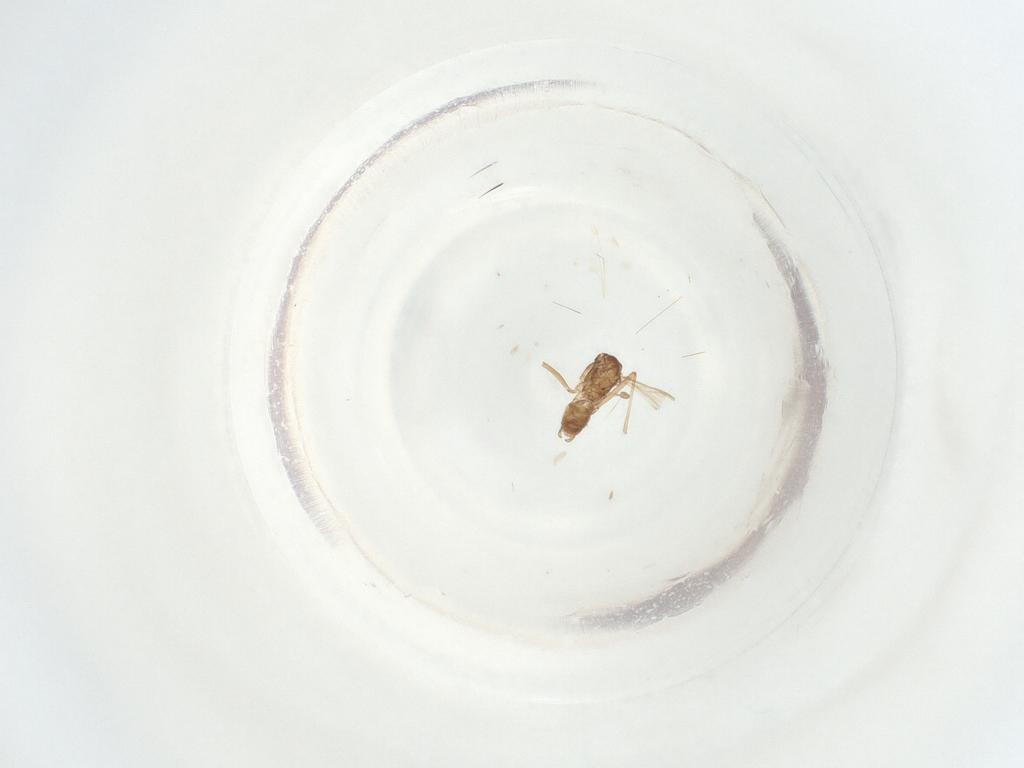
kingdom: Animalia
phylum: Arthropoda
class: Insecta
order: Diptera
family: Sciaridae
